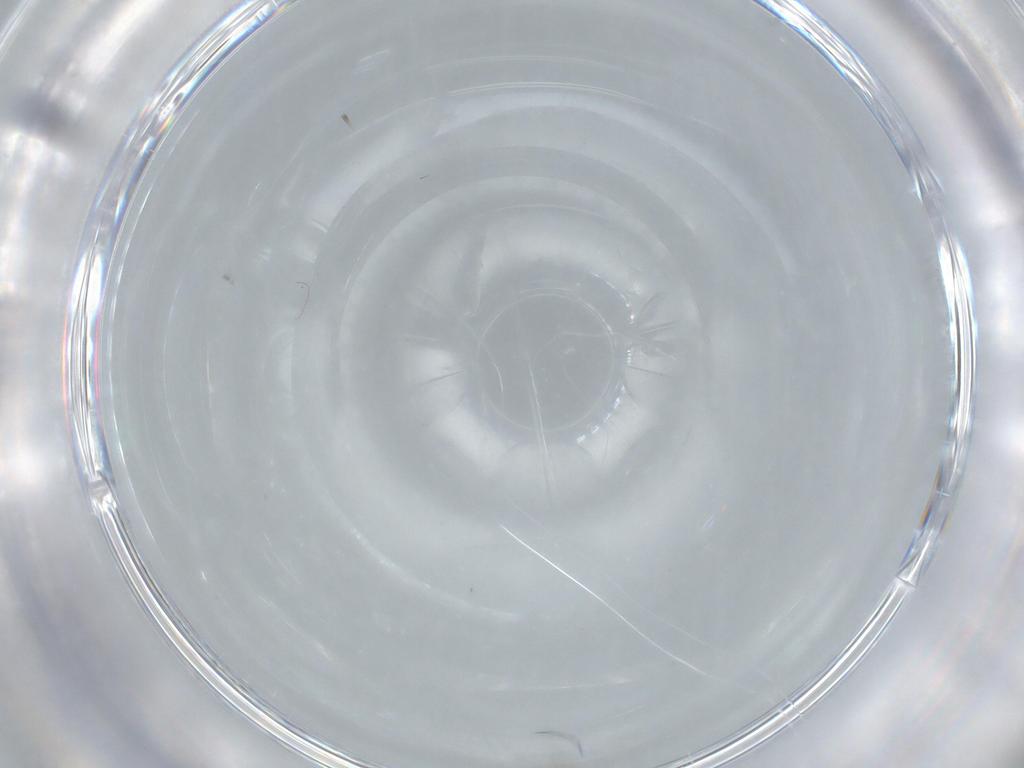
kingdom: Animalia
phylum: Arthropoda
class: Insecta
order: Diptera
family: Cecidomyiidae
